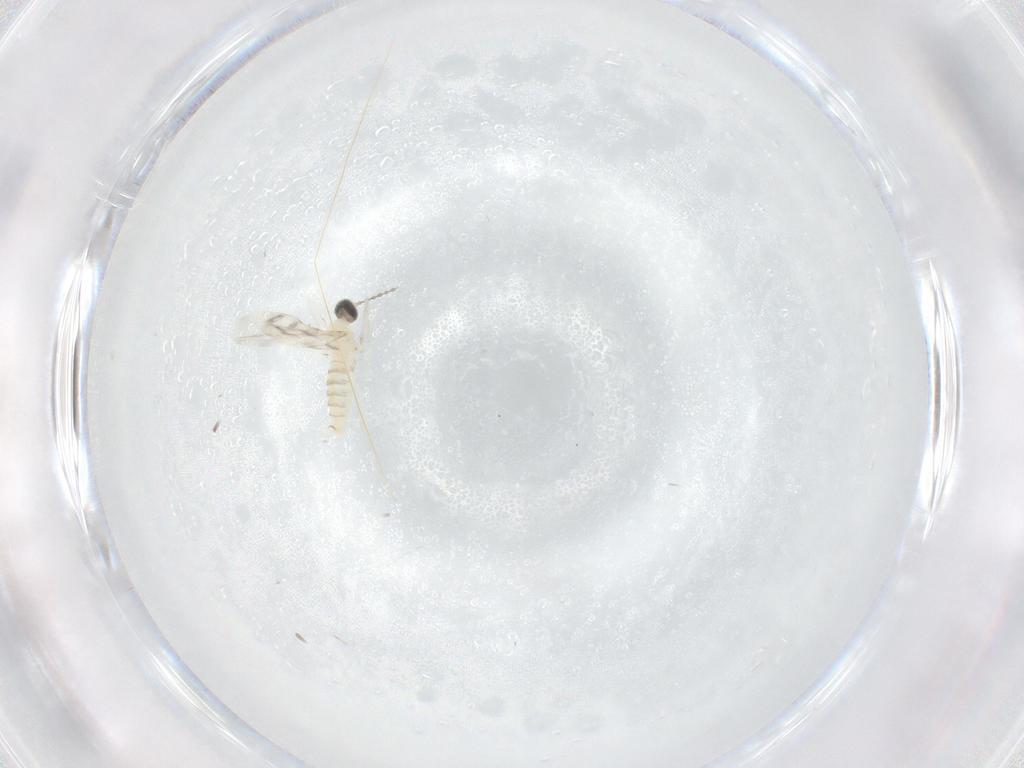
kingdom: Animalia
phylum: Arthropoda
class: Insecta
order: Diptera
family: Cecidomyiidae
